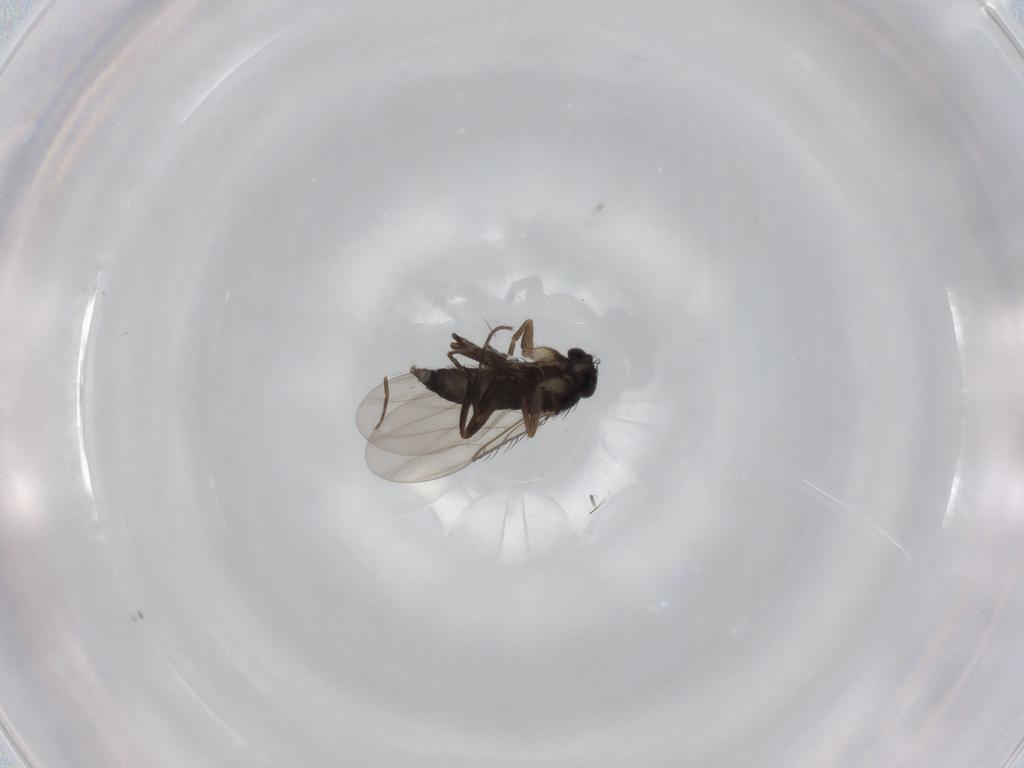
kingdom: Animalia
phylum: Arthropoda
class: Insecta
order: Diptera
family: Phoridae
